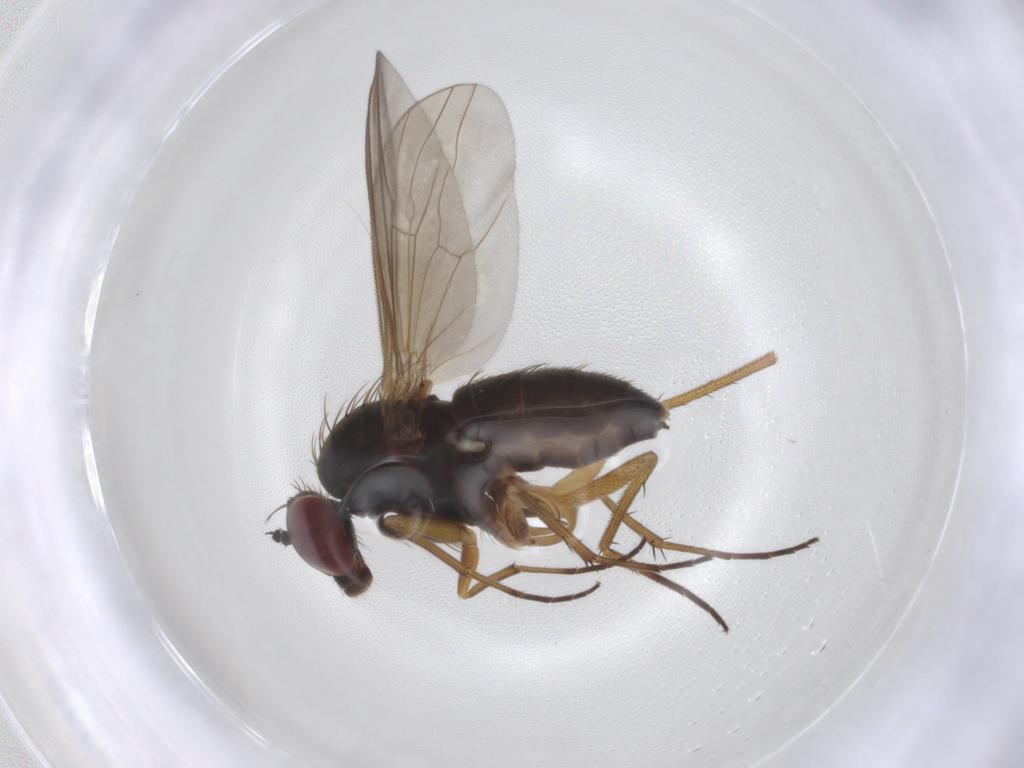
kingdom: Animalia
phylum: Arthropoda
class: Insecta
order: Diptera
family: Dolichopodidae
